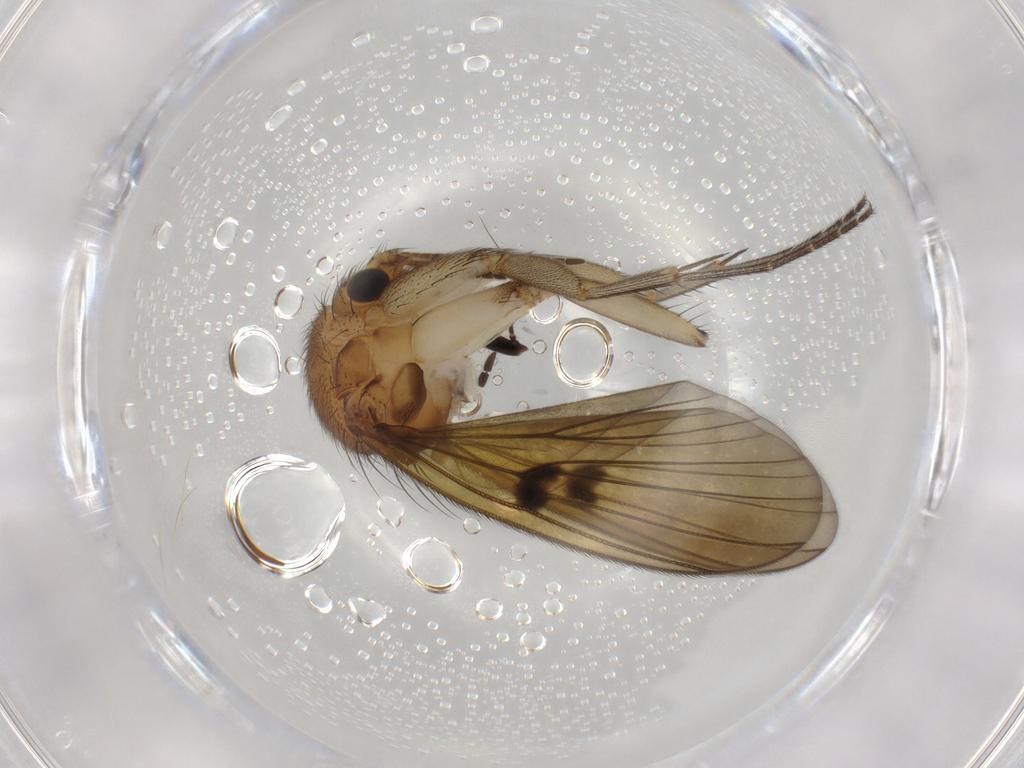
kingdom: Animalia
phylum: Arthropoda
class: Insecta
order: Diptera
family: Mycetophilidae
